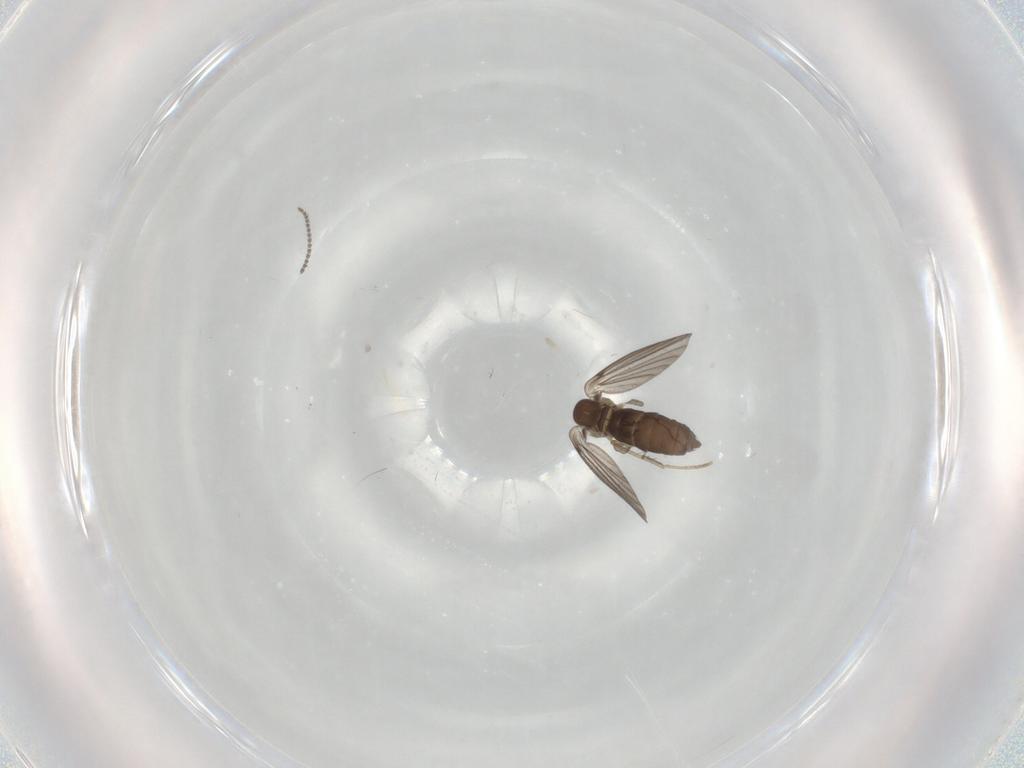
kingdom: Animalia
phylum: Arthropoda
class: Insecta
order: Diptera
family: Sciaridae
